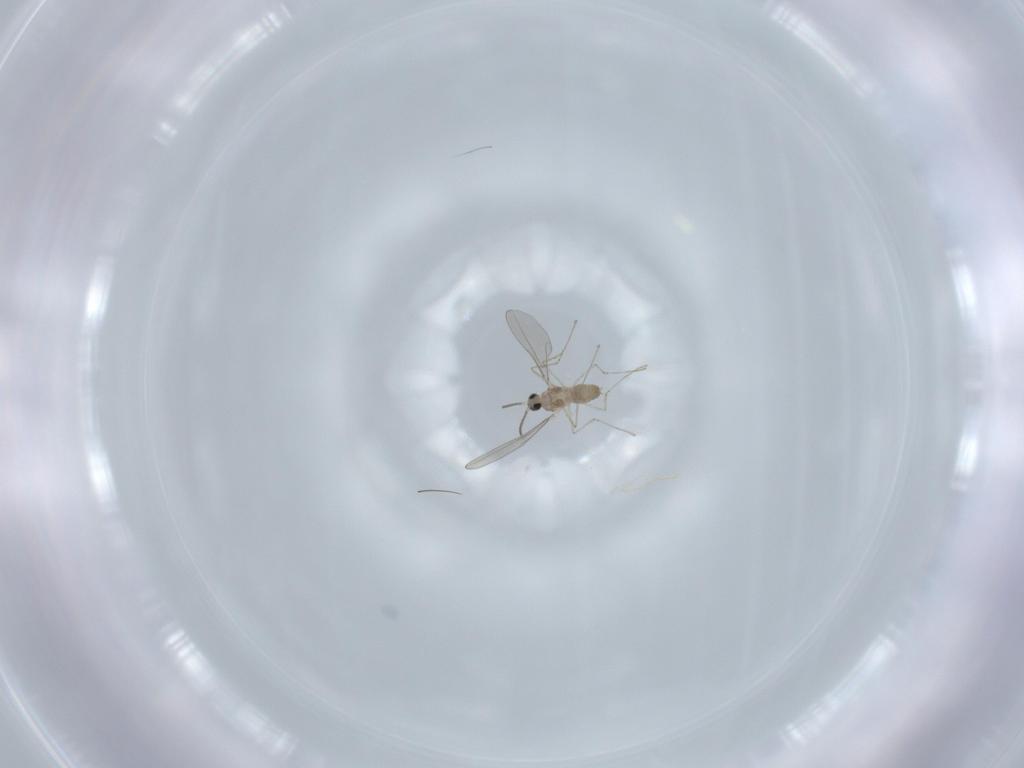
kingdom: Animalia
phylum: Arthropoda
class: Insecta
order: Diptera
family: Cecidomyiidae
